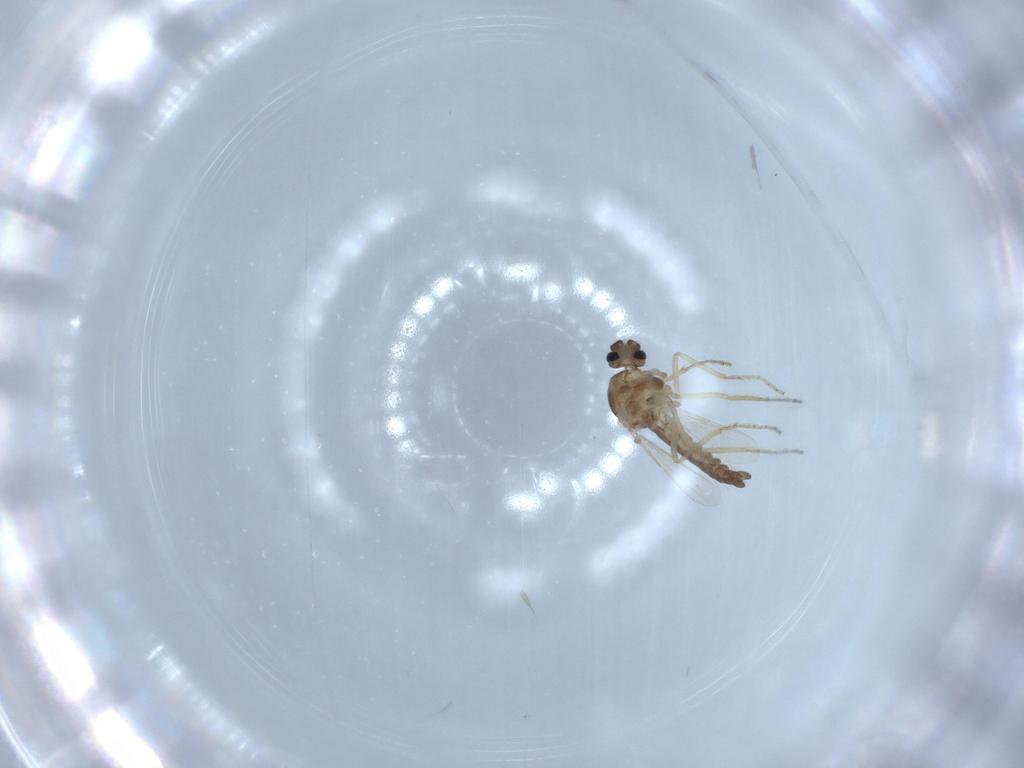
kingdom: Animalia
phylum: Arthropoda
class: Insecta
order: Diptera
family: Ceratopogonidae
